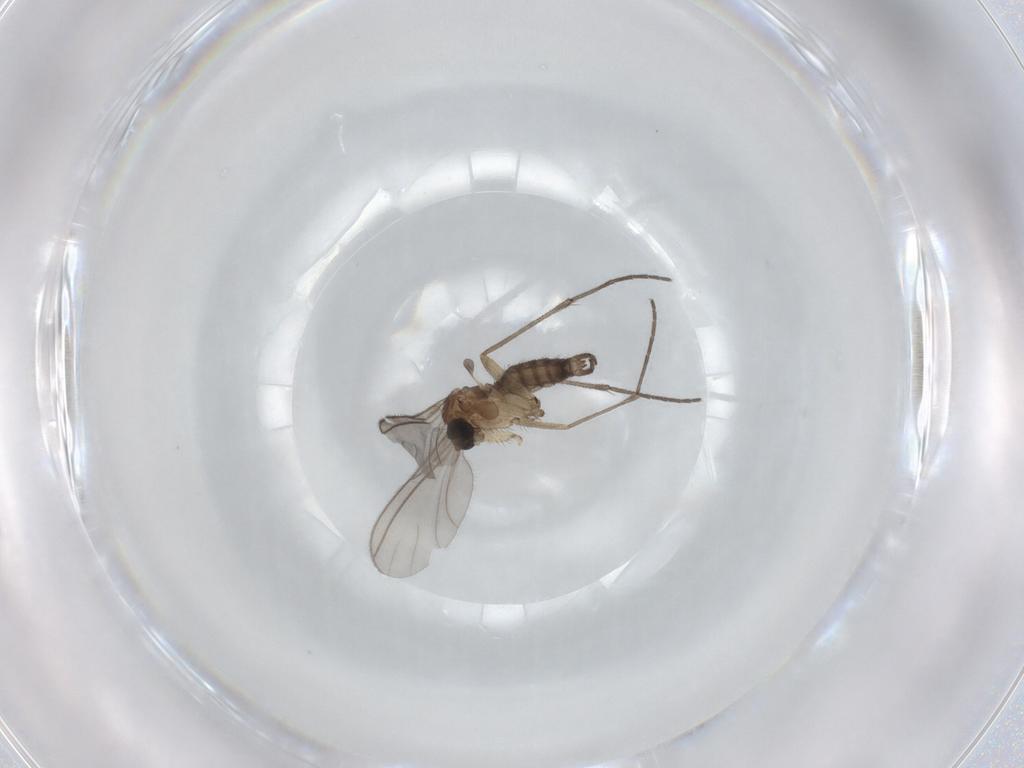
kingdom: Animalia
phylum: Arthropoda
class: Insecta
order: Diptera
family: Sciaridae
